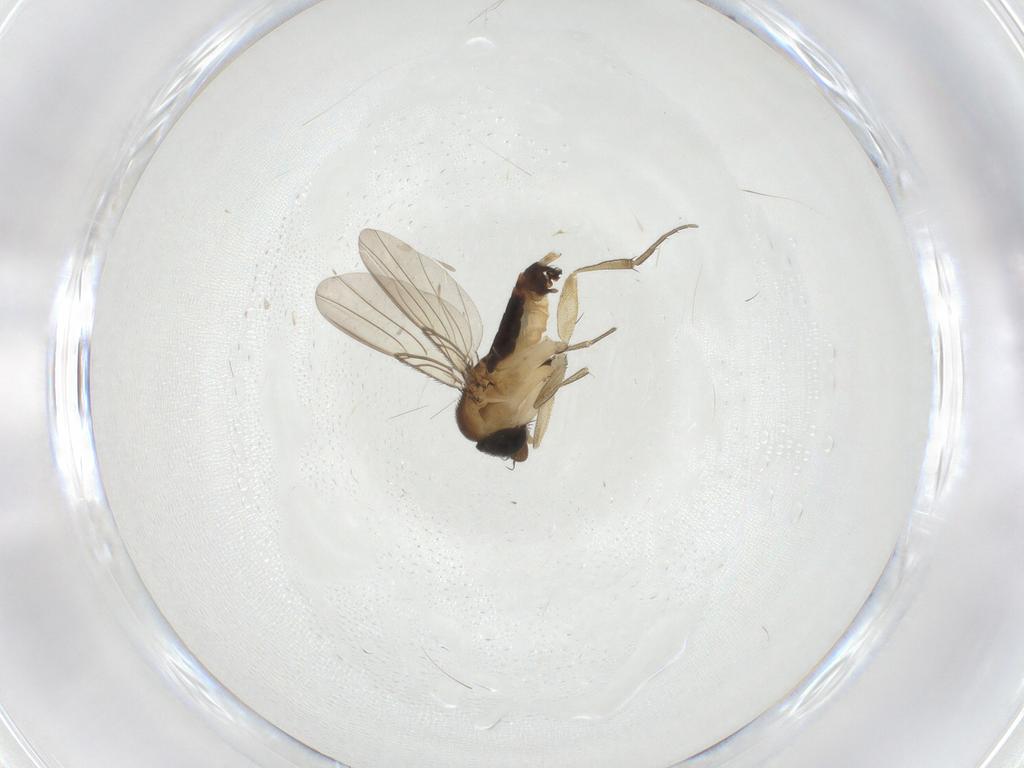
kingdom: Animalia
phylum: Arthropoda
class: Insecta
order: Diptera
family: Phoridae
